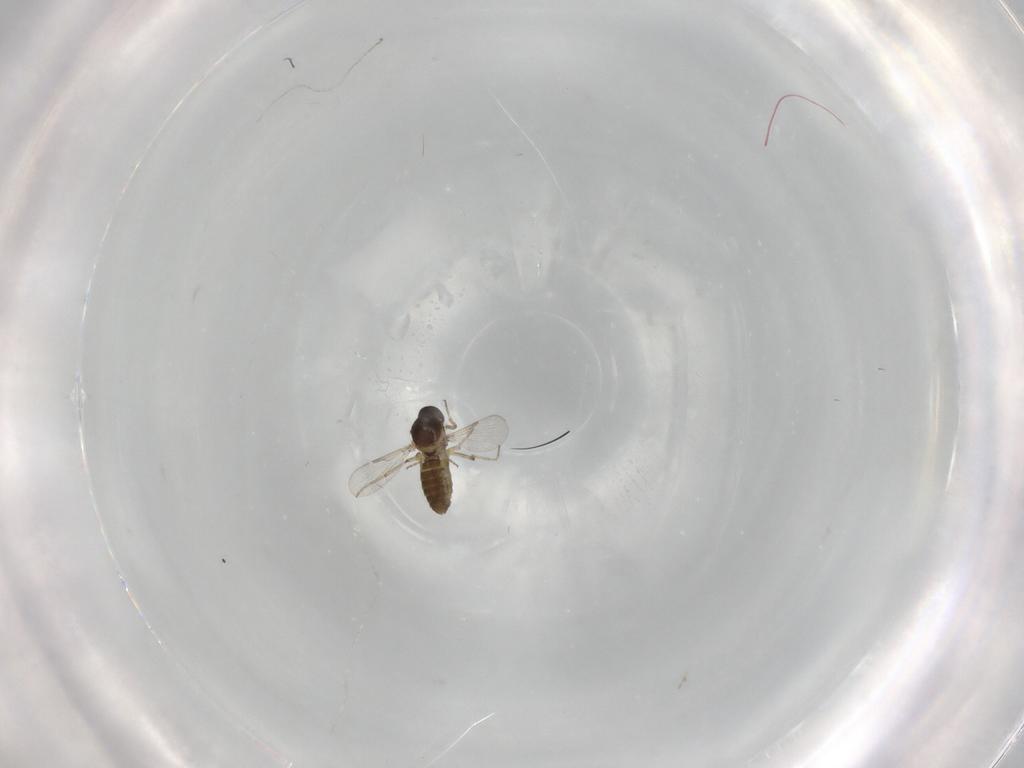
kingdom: Animalia
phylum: Arthropoda
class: Insecta
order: Diptera
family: Ceratopogonidae
